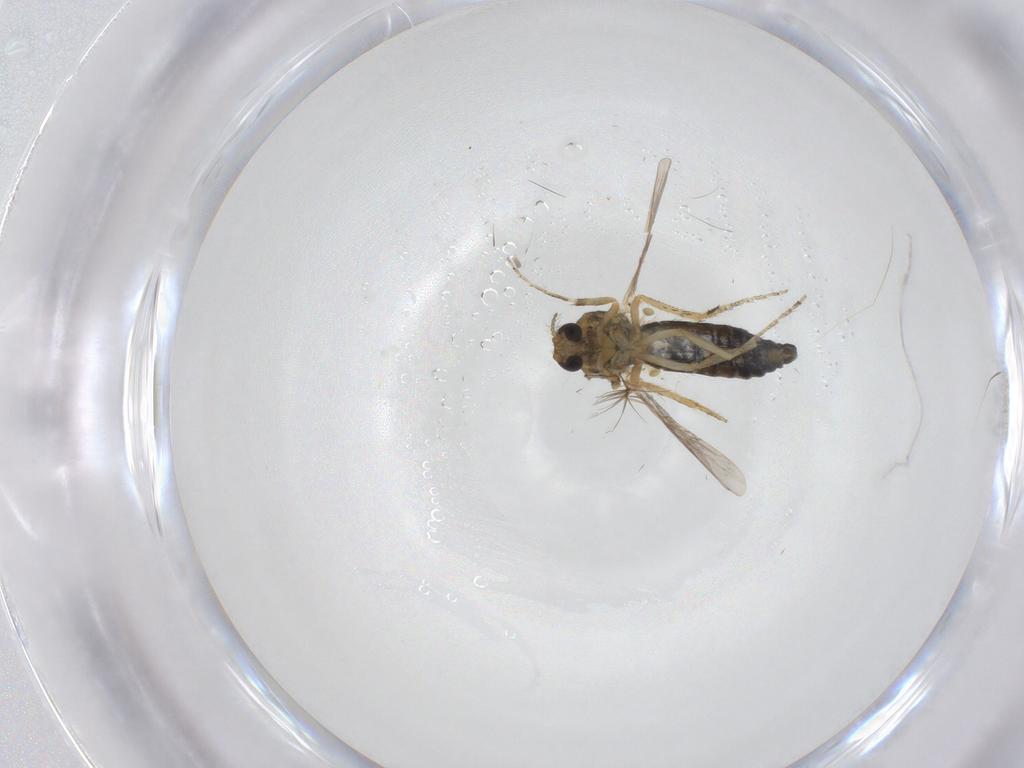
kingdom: Animalia
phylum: Arthropoda
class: Insecta
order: Diptera
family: Ceratopogonidae
